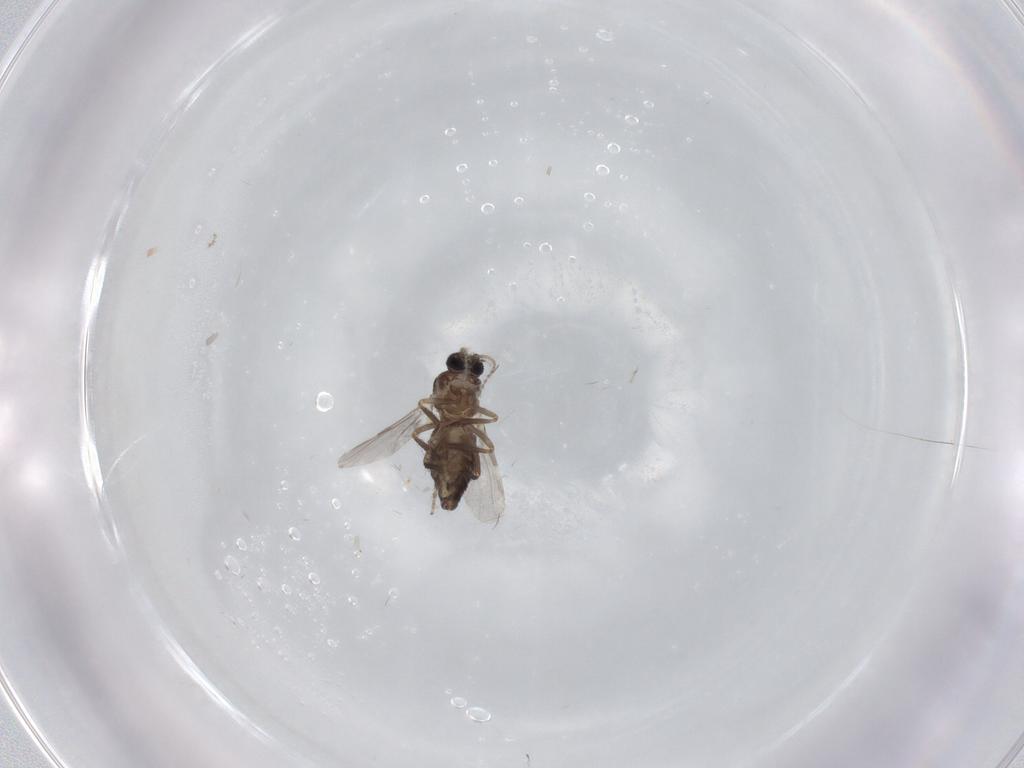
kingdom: Animalia
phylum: Arthropoda
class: Insecta
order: Diptera
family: Ceratopogonidae
